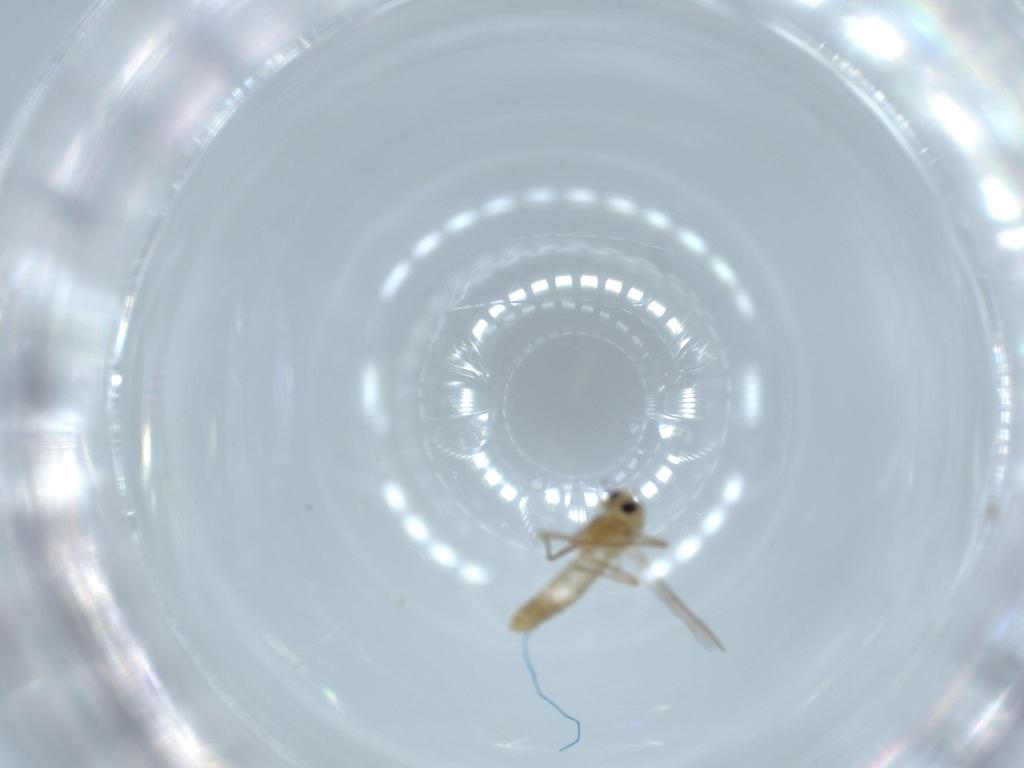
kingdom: Animalia
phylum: Arthropoda
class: Insecta
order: Diptera
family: Chironomidae
